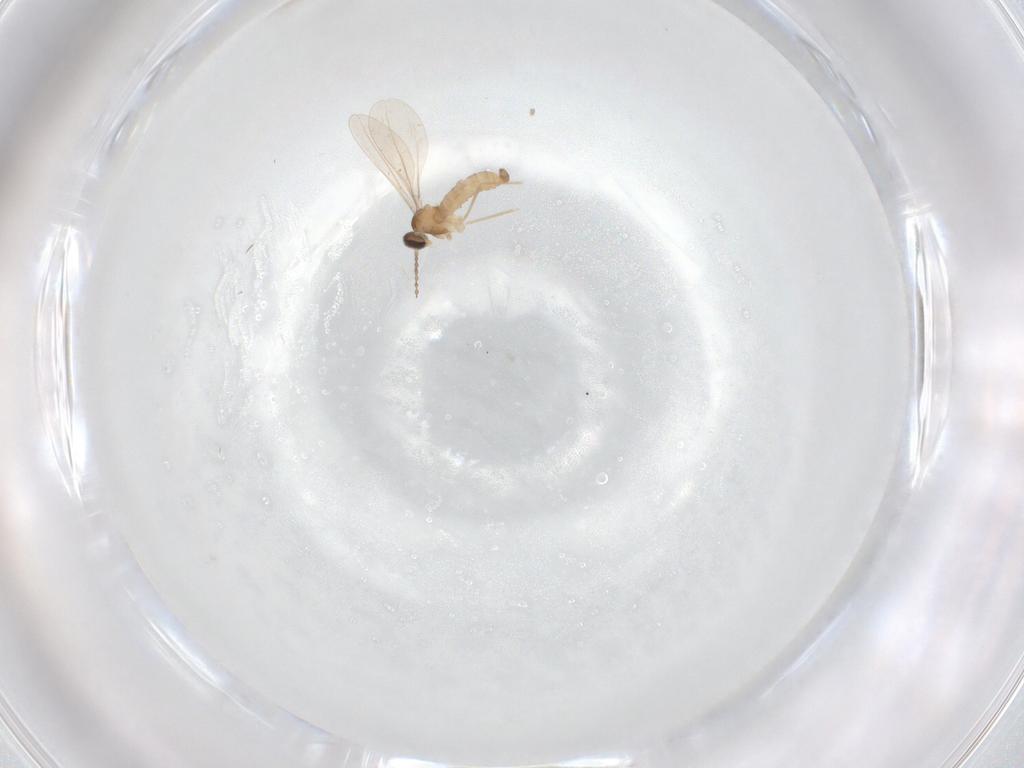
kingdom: Animalia
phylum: Arthropoda
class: Insecta
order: Diptera
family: Cecidomyiidae
